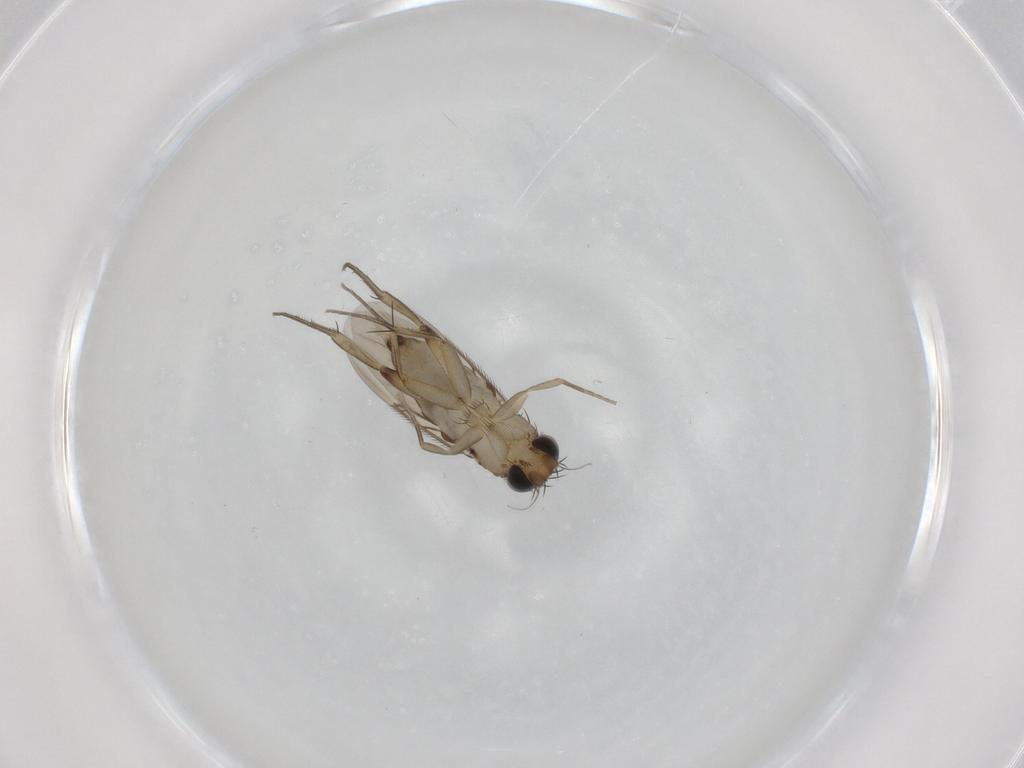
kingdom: Animalia
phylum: Arthropoda
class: Insecta
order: Diptera
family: Phoridae
